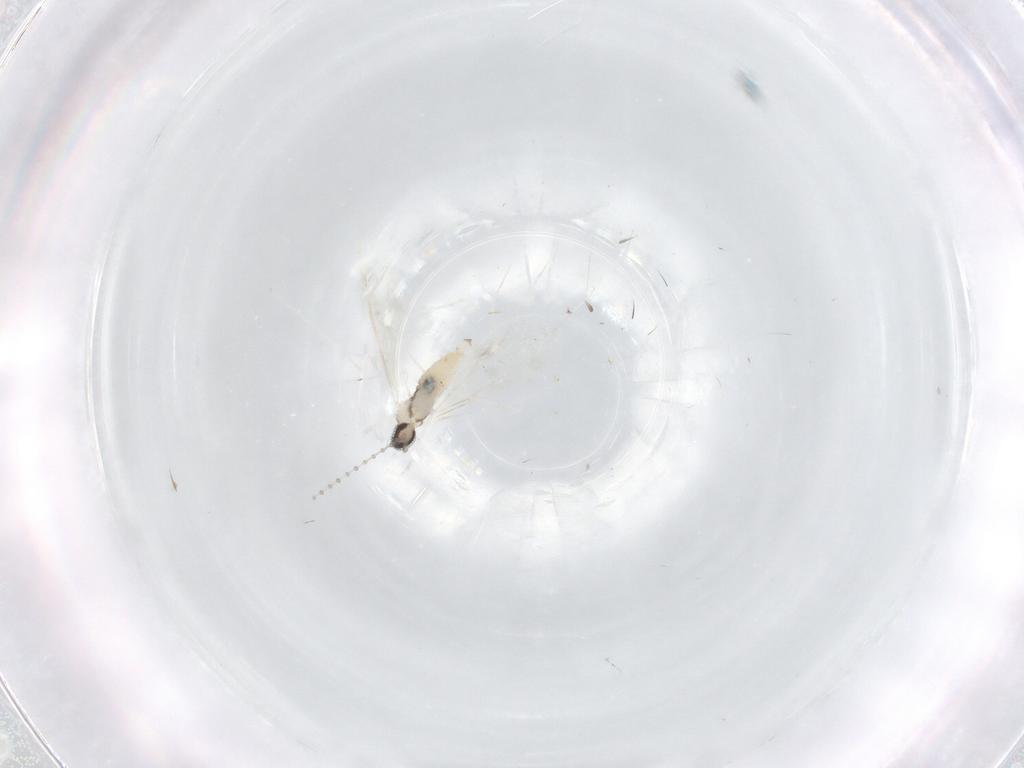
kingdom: Animalia
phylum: Arthropoda
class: Insecta
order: Diptera
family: Cecidomyiidae
